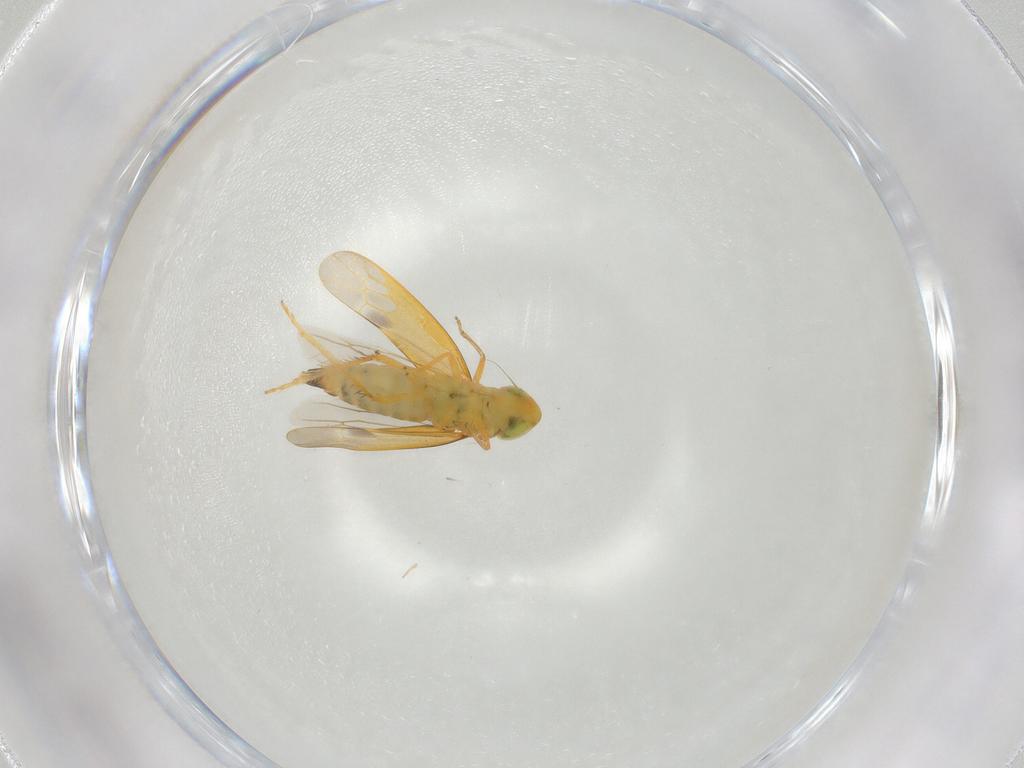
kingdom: Animalia
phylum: Arthropoda
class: Insecta
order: Hemiptera
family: Cicadellidae
